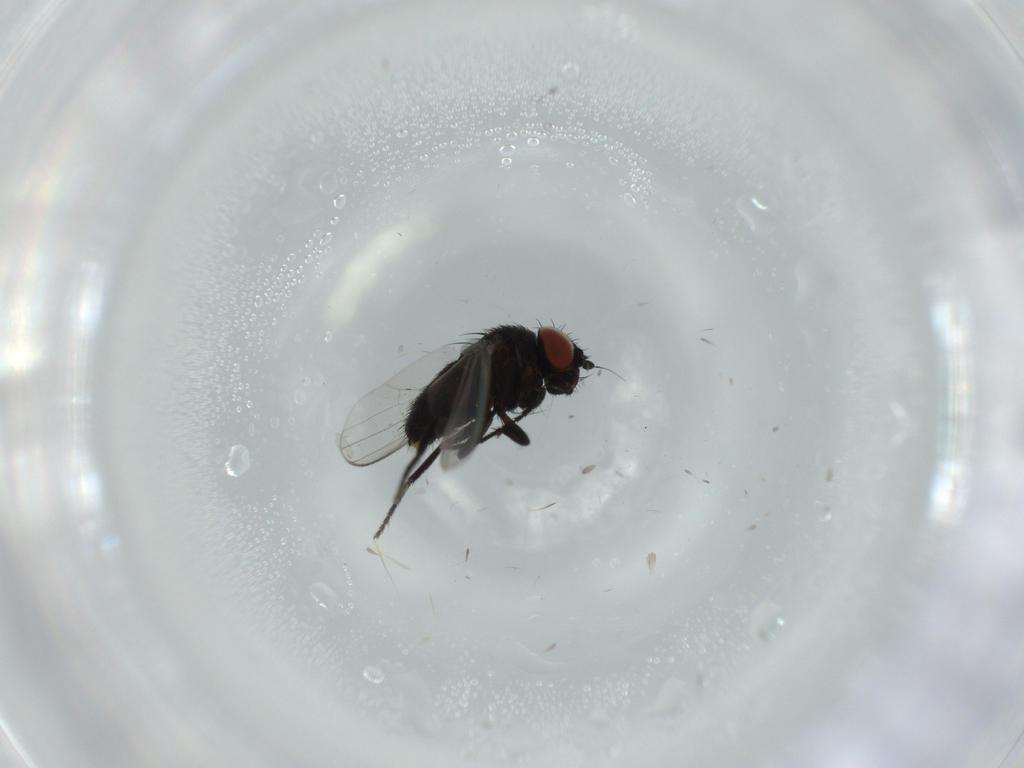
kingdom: Animalia
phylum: Arthropoda
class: Insecta
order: Diptera
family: Milichiidae
